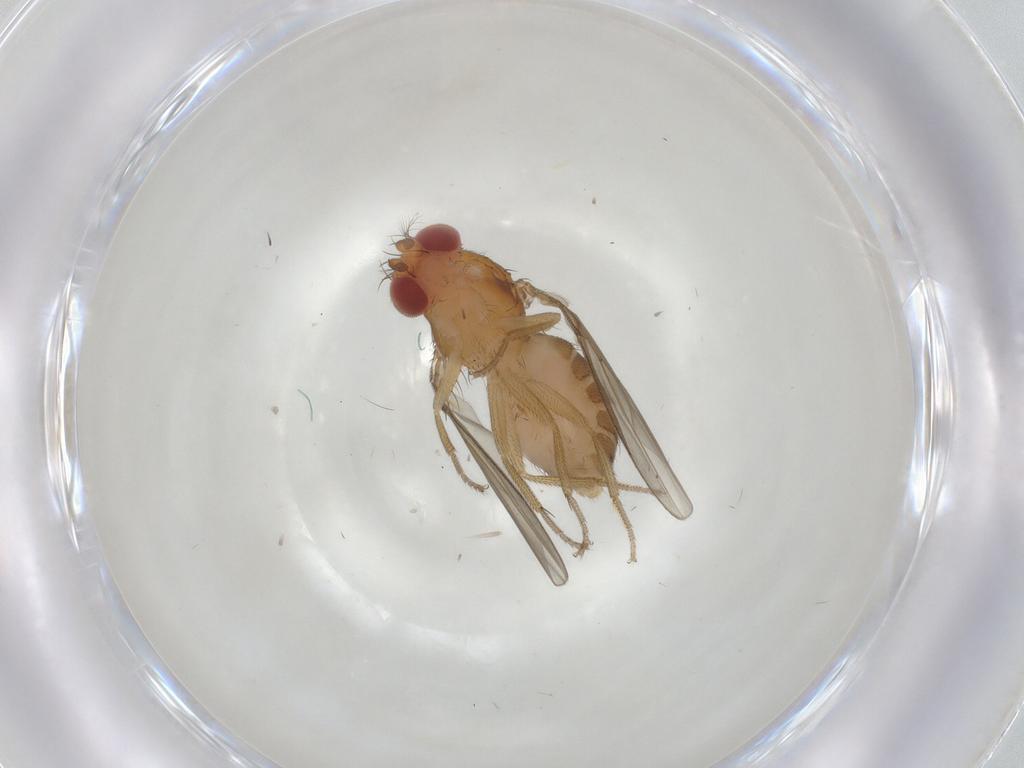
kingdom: Animalia
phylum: Arthropoda
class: Insecta
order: Diptera
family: Drosophilidae
